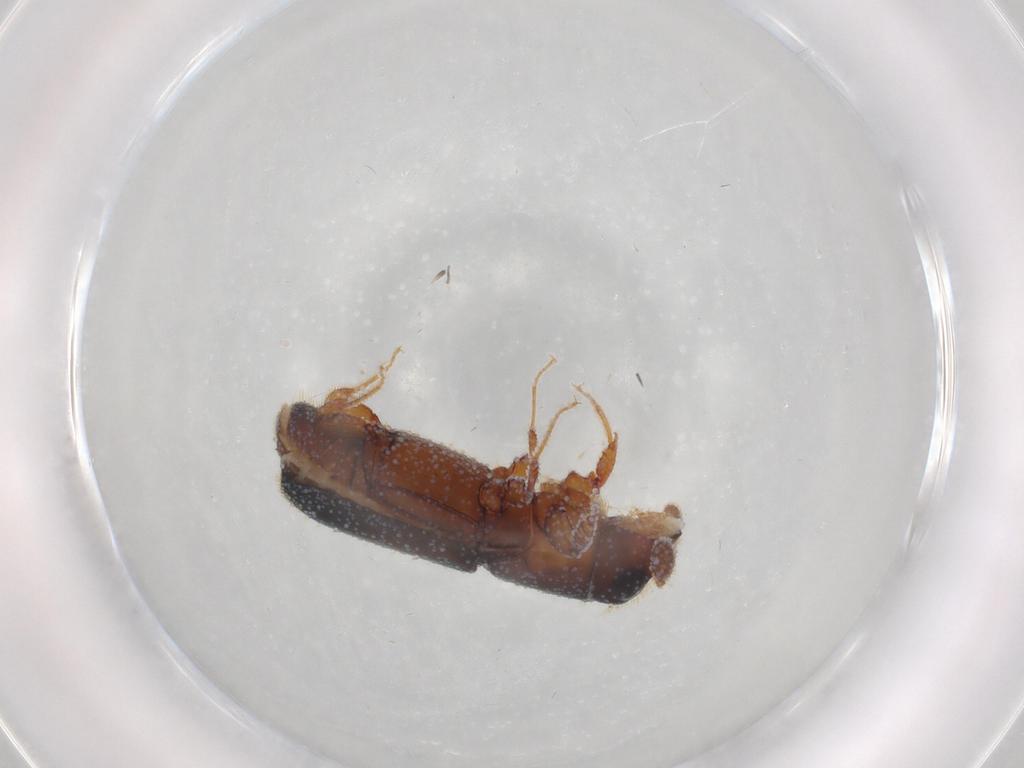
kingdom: Animalia
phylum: Arthropoda
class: Insecta
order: Coleoptera
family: Curculionidae
